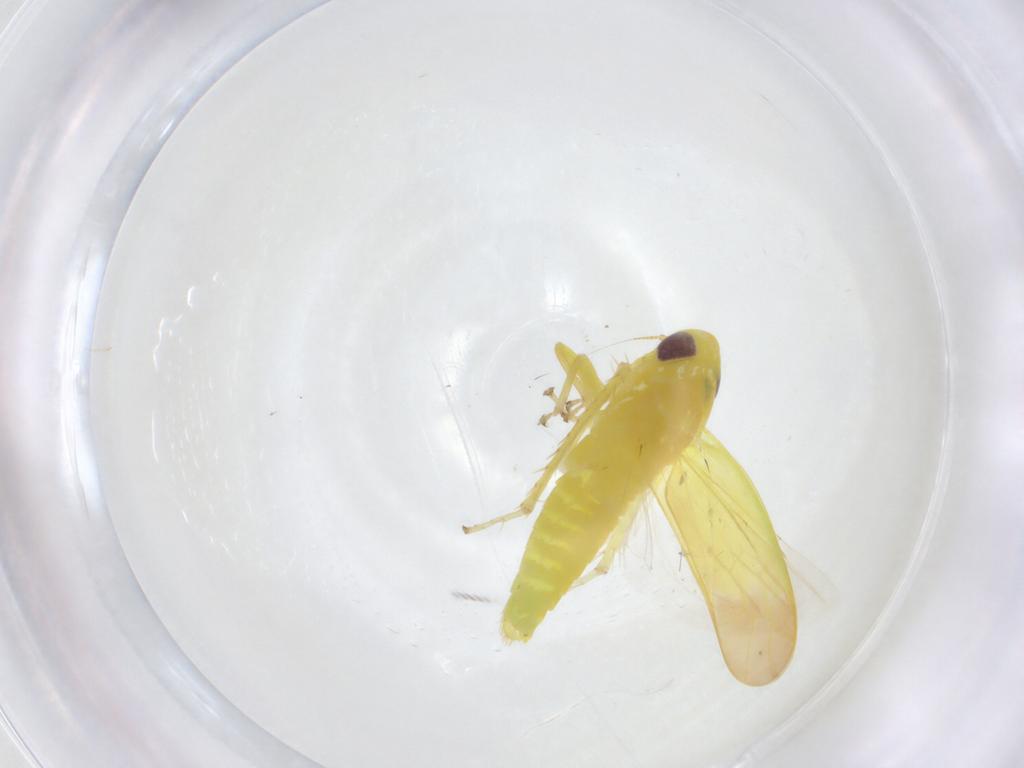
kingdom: Animalia
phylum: Arthropoda
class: Insecta
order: Hemiptera
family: Cicadellidae
